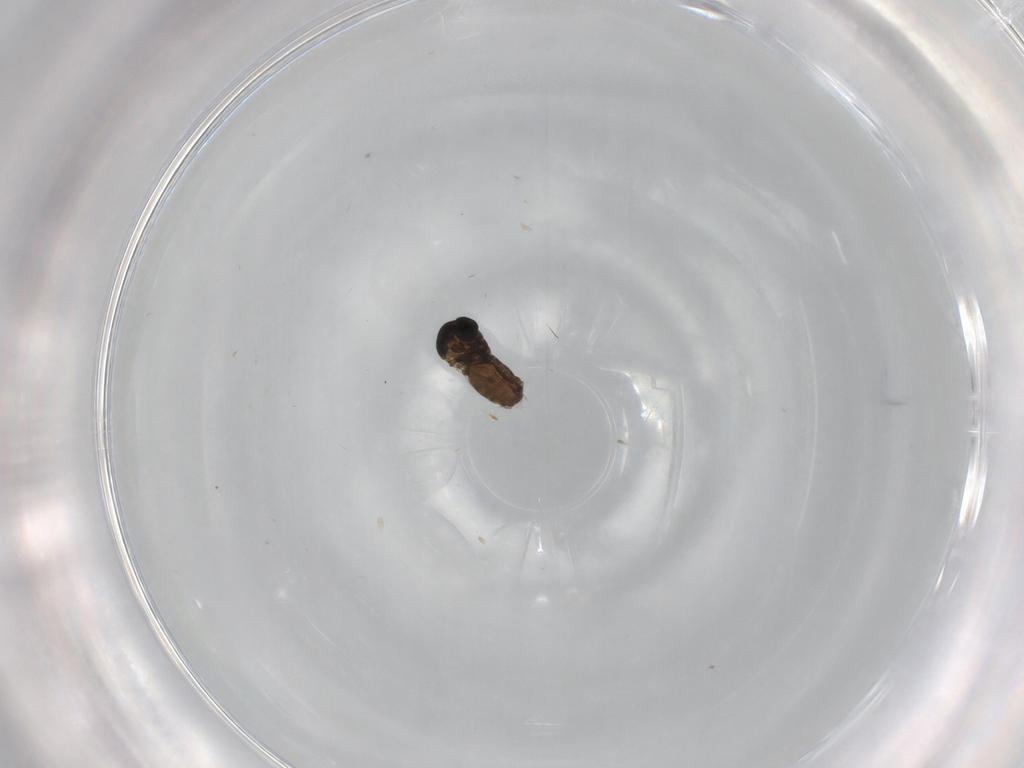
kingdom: Animalia
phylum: Arthropoda
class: Insecta
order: Diptera
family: Ceratopogonidae
